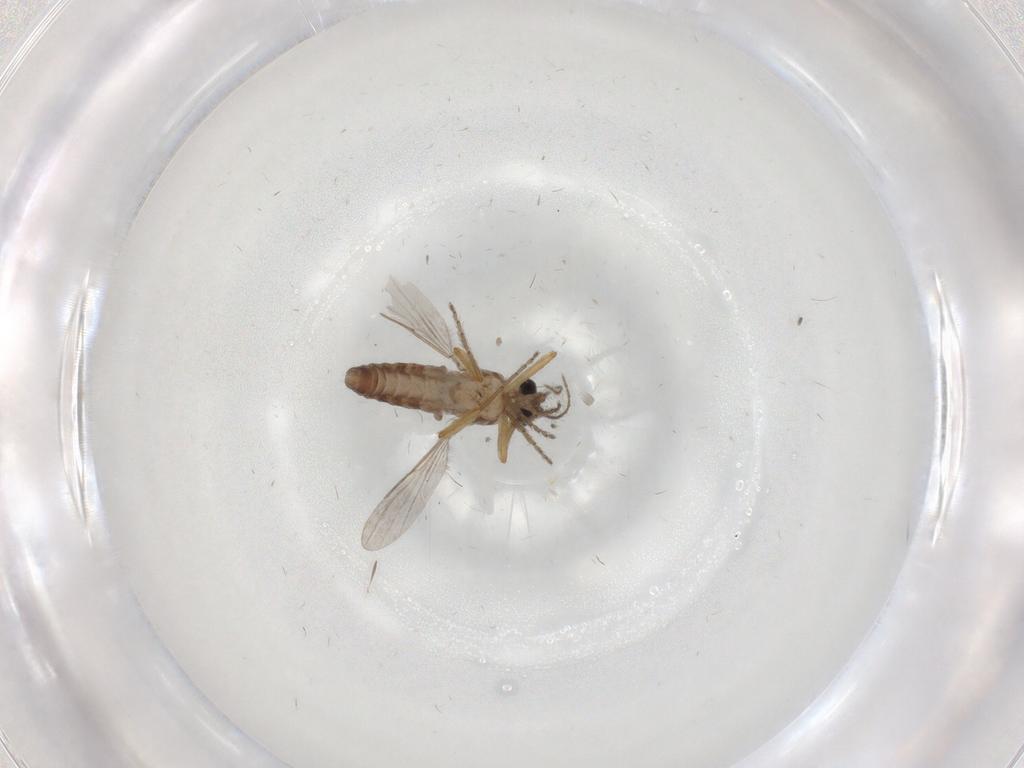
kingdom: Animalia
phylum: Arthropoda
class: Insecta
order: Diptera
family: Ceratopogonidae
